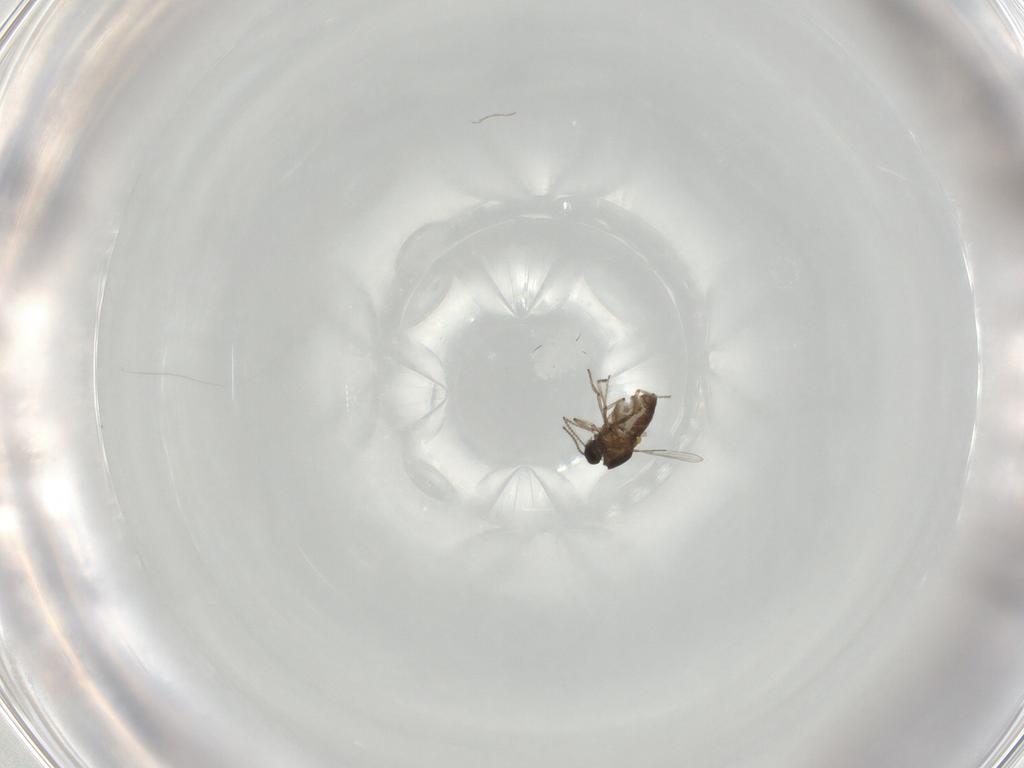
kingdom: Animalia
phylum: Arthropoda
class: Insecta
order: Diptera
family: Ceratopogonidae
